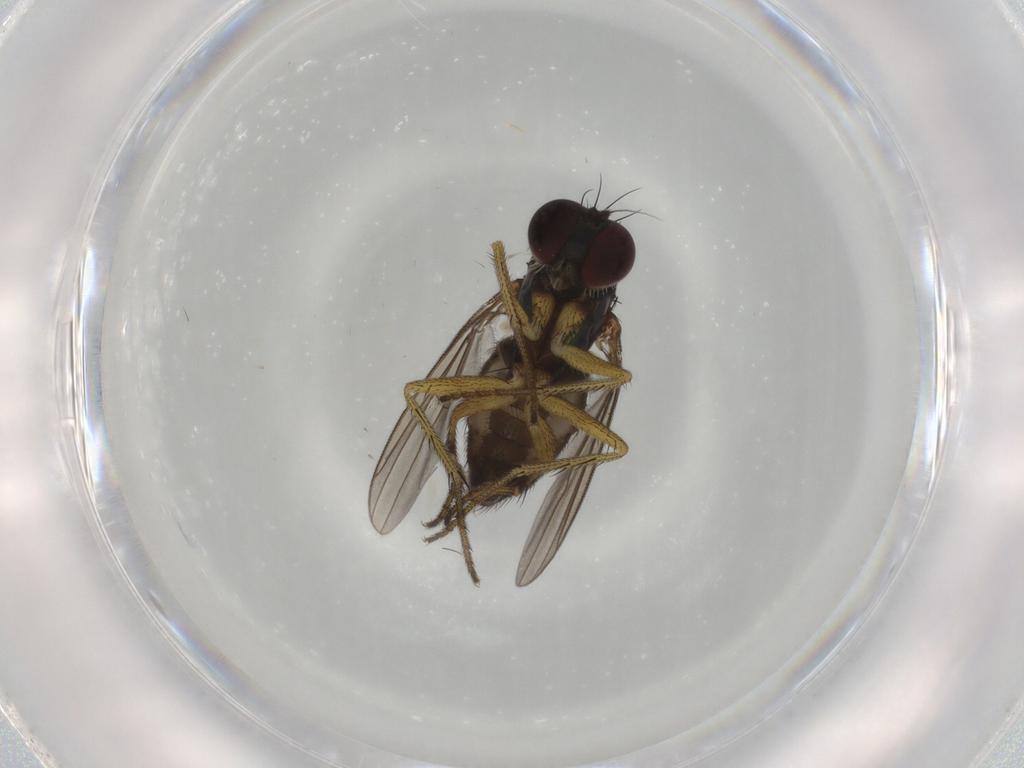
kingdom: Animalia
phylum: Arthropoda
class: Insecta
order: Diptera
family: Dolichopodidae
